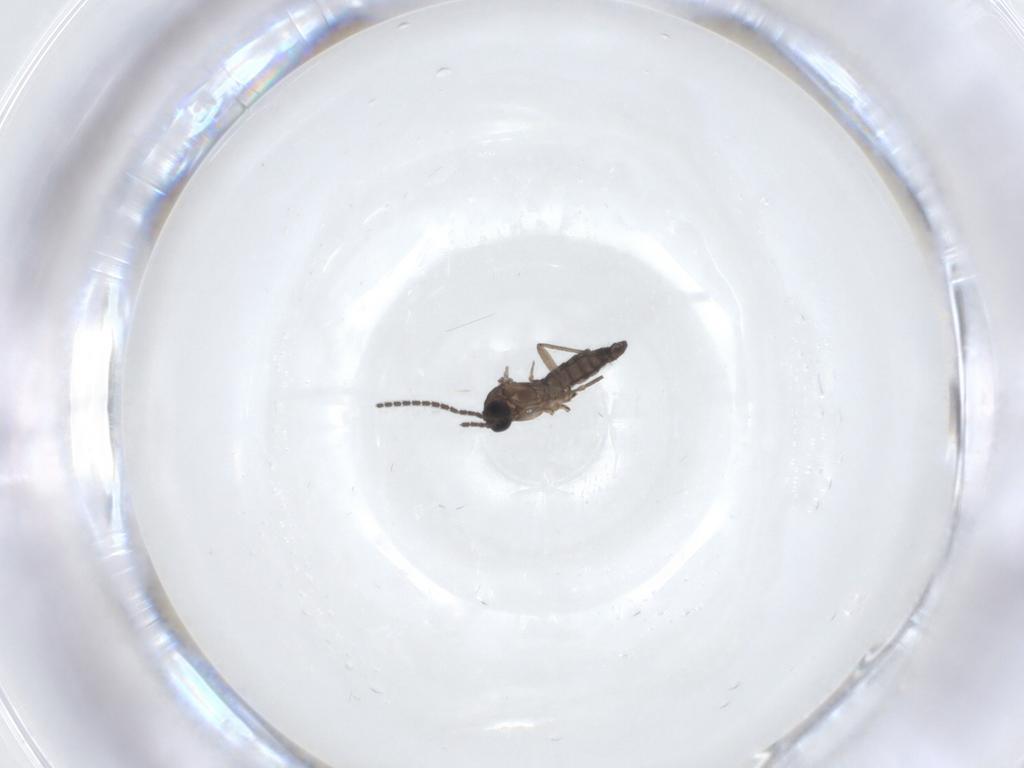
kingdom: Animalia
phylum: Arthropoda
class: Insecta
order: Diptera
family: Sciaridae
